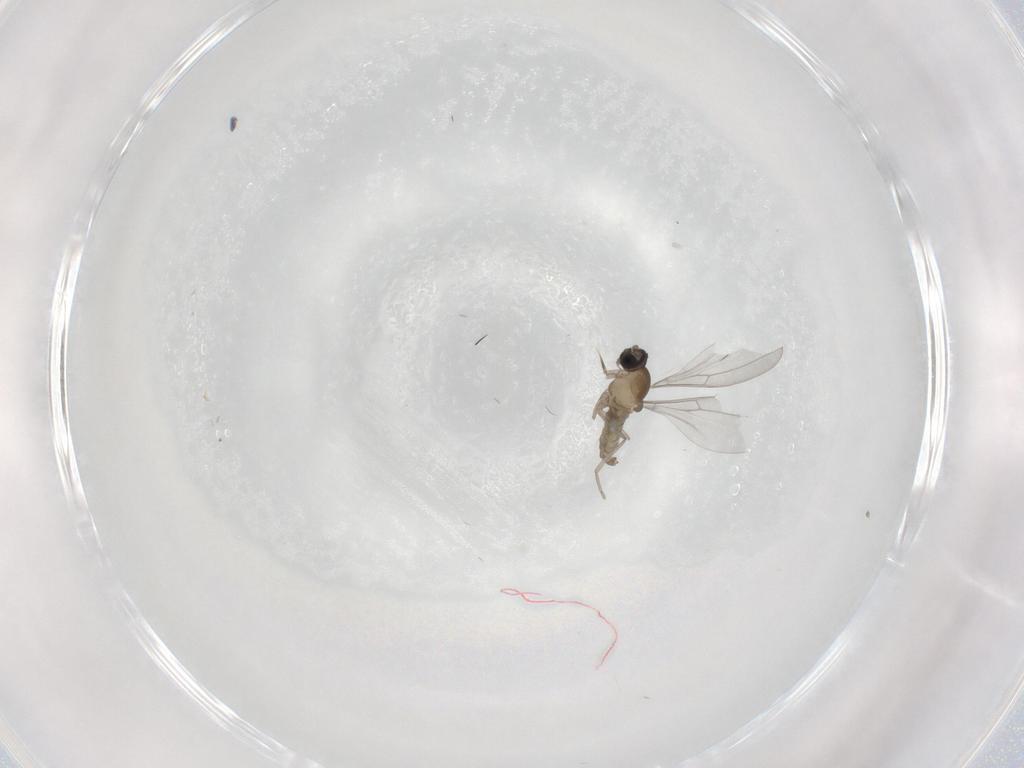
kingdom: Animalia
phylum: Arthropoda
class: Insecta
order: Diptera
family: Cecidomyiidae
